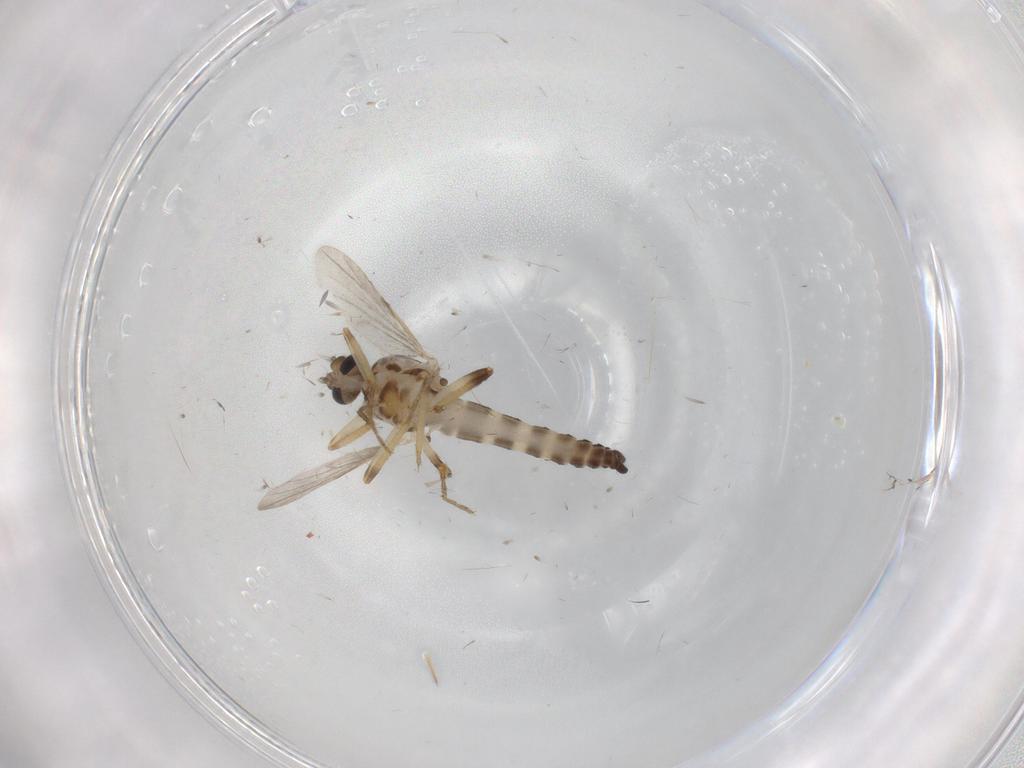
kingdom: Animalia
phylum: Arthropoda
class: Insecta
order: Diptera
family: Ceratopogonidae
